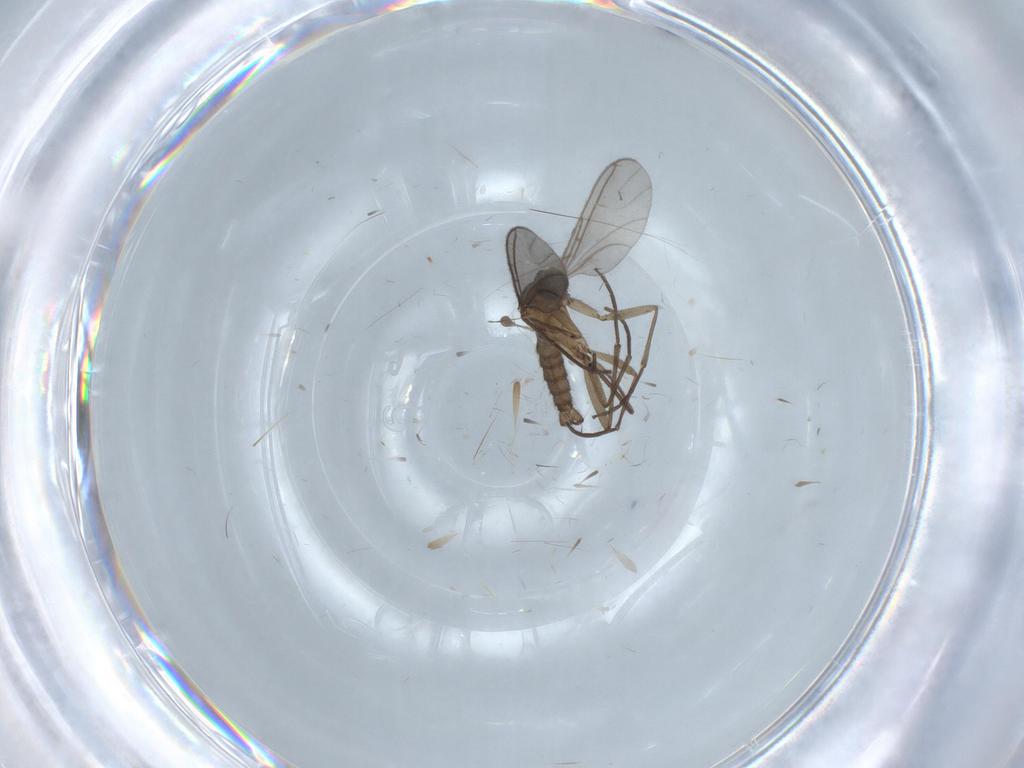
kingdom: Animalia
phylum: Arthropoda
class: Insecta
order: Diptera
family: Sciaridae
